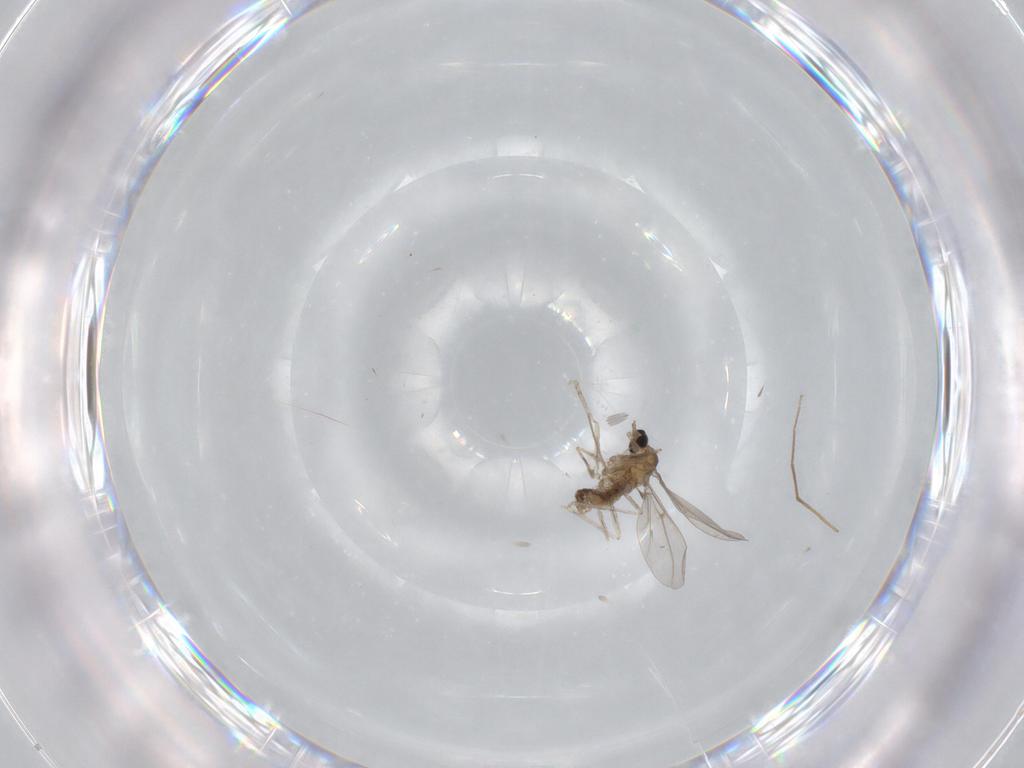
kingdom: Animalia
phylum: Arthropoda
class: Insecta
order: Diptera
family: Cecidomyiidae
